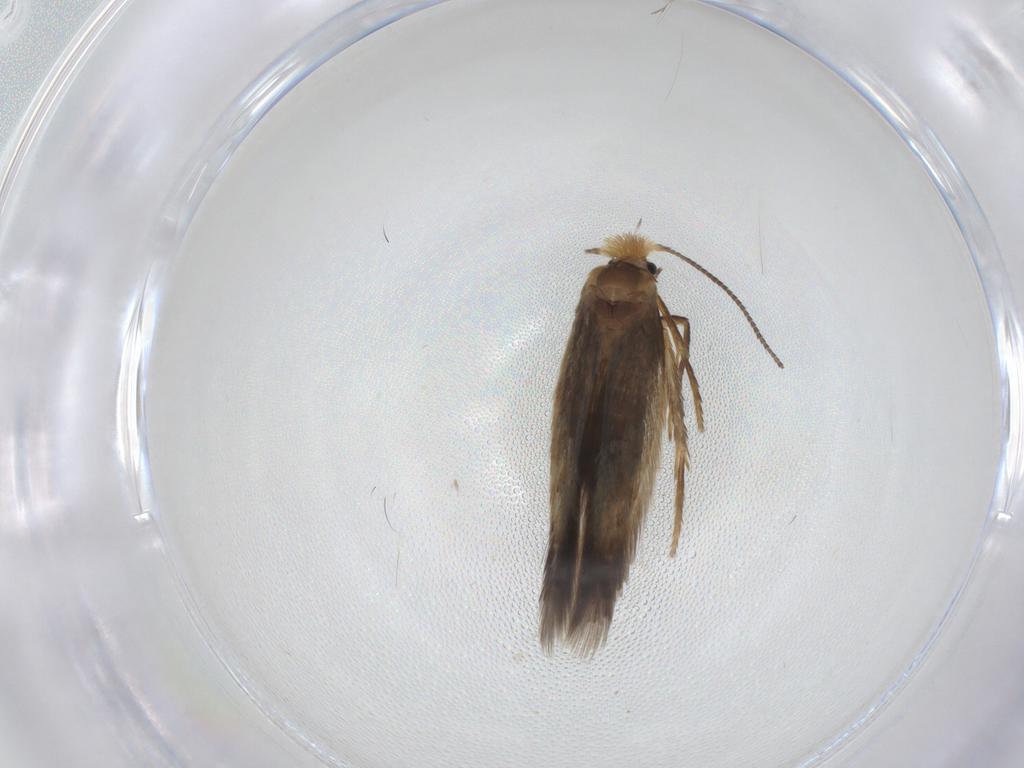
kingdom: Animalia
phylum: Arthropoda
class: Insecta
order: Lepidoptera
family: Nepticulidae
